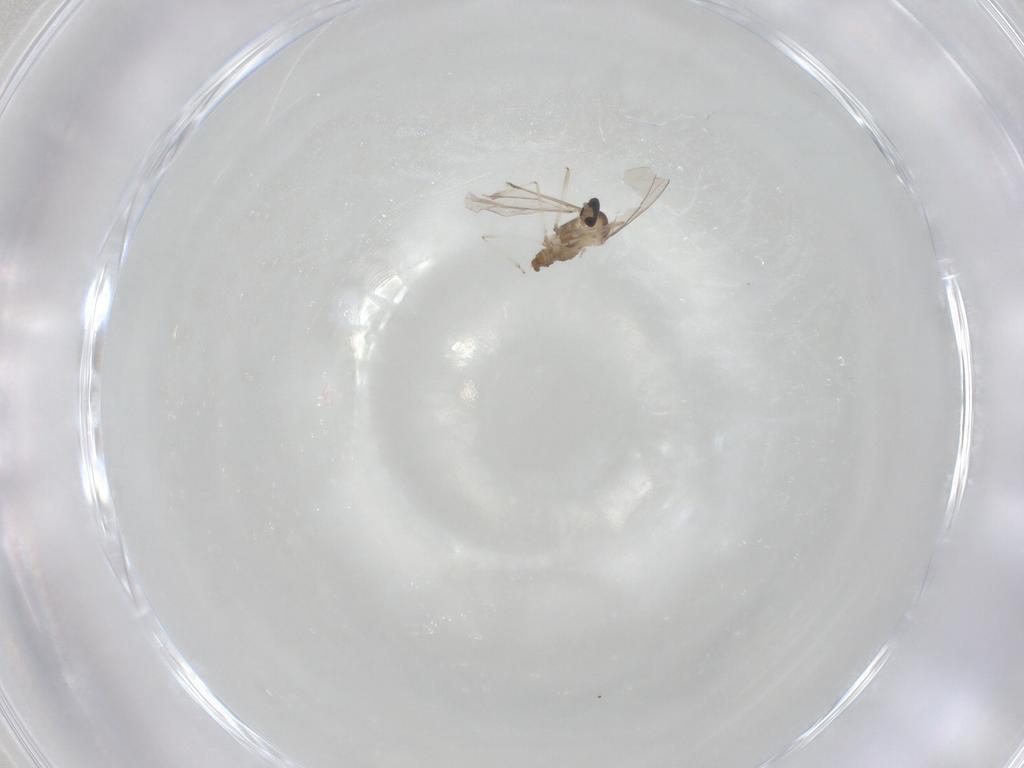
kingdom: Animalia
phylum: Arthropoda
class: Insecta
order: Diptera
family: Cecidomyiidae
